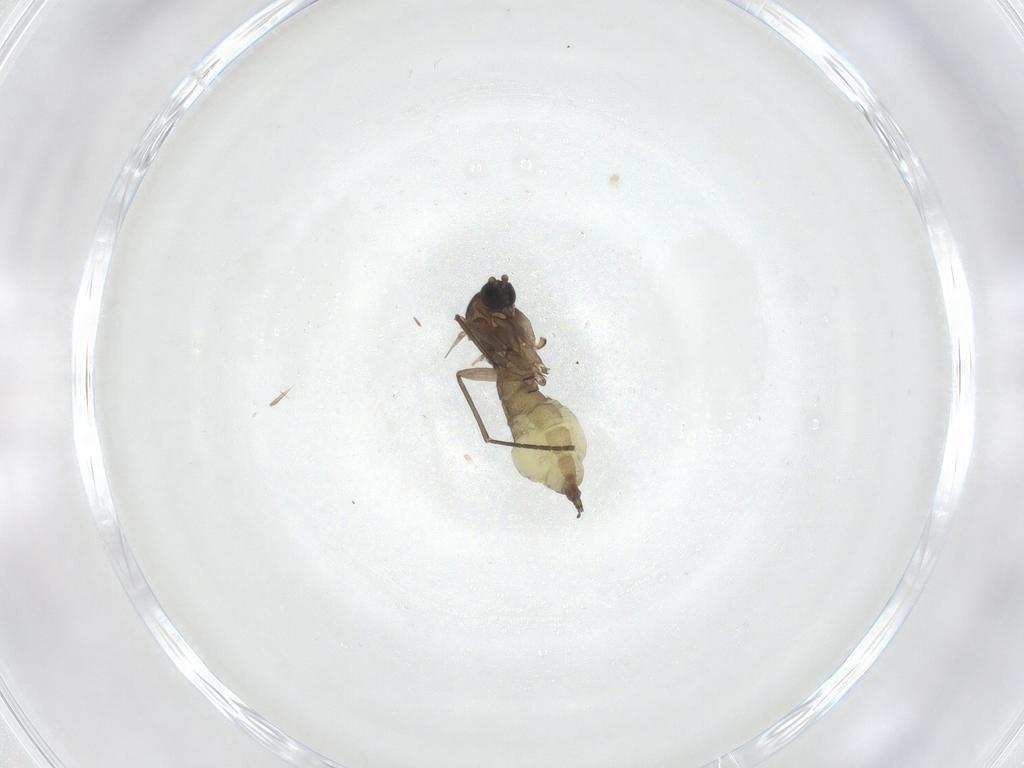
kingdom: Animalia
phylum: Arthropoda
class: Insecta
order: Diptera
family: Sciaridae
